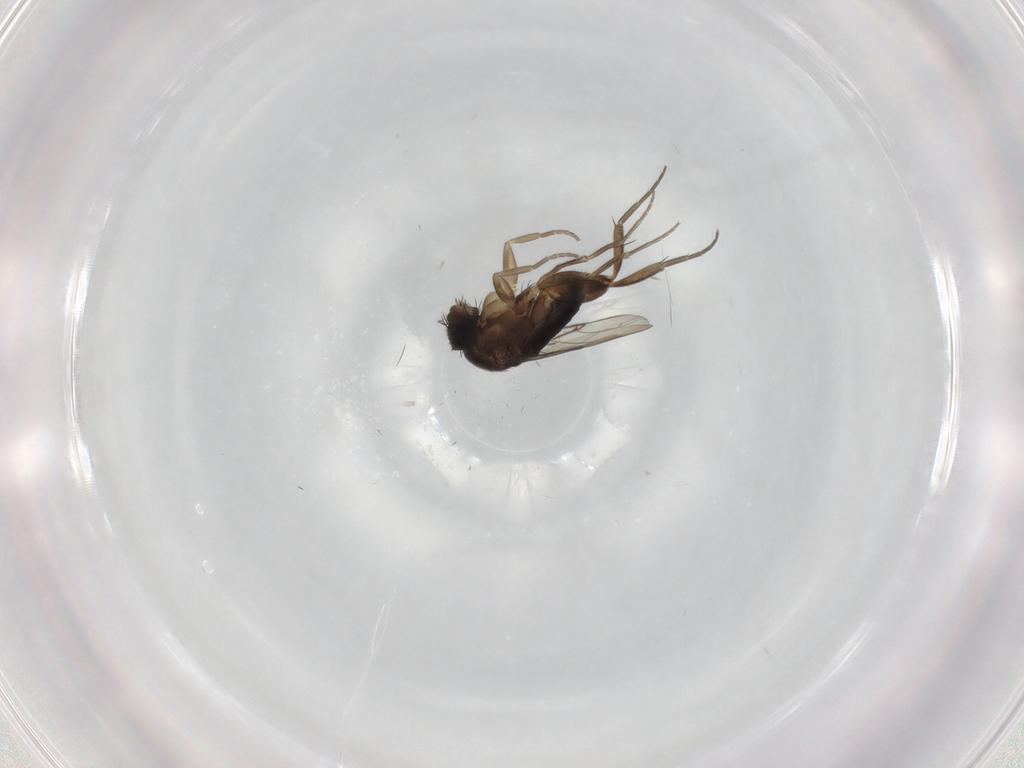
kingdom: Animalia
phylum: Arthropoda
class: Insecta
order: Diptera
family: Phoridae
